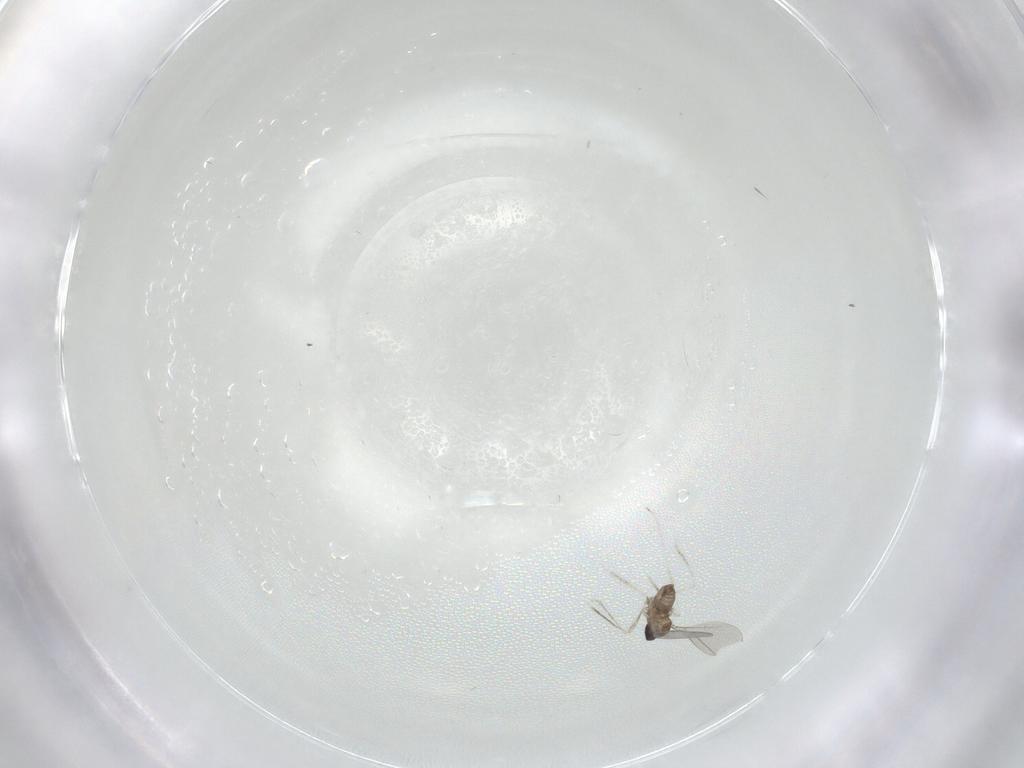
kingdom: Animalia
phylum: Arthropoda
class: Insecta
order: Diptera
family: Cecidomyiidae
